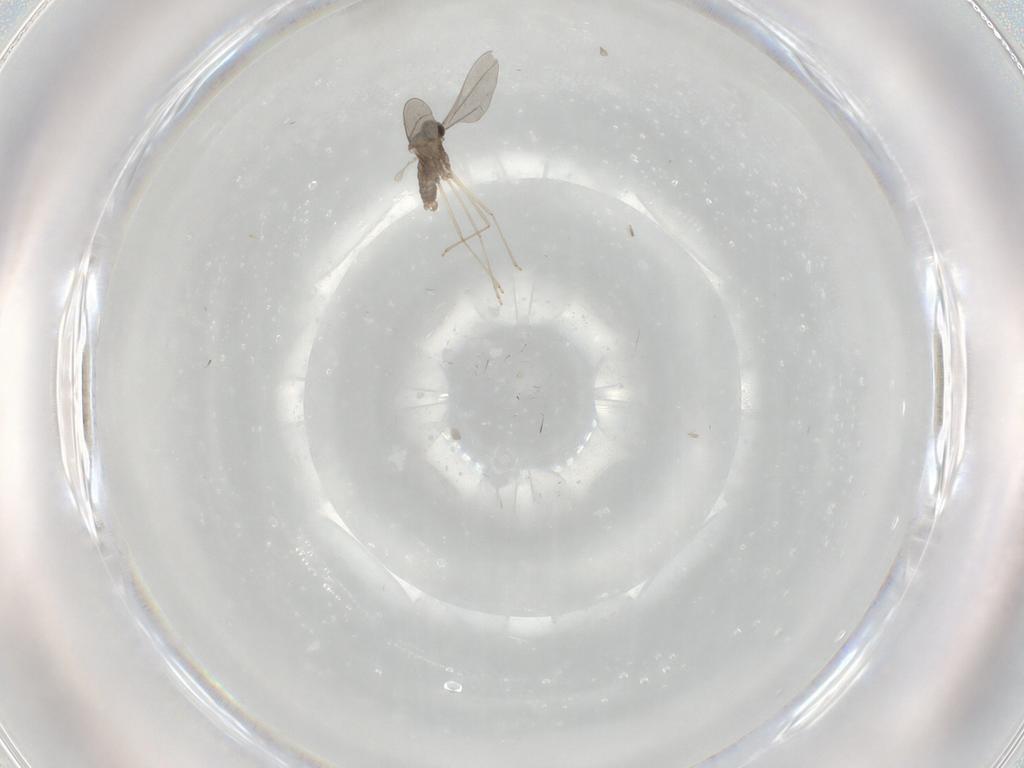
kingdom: Animalia
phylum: Arthropoda
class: Insecta
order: Diptera
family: Cecidomyiidae
